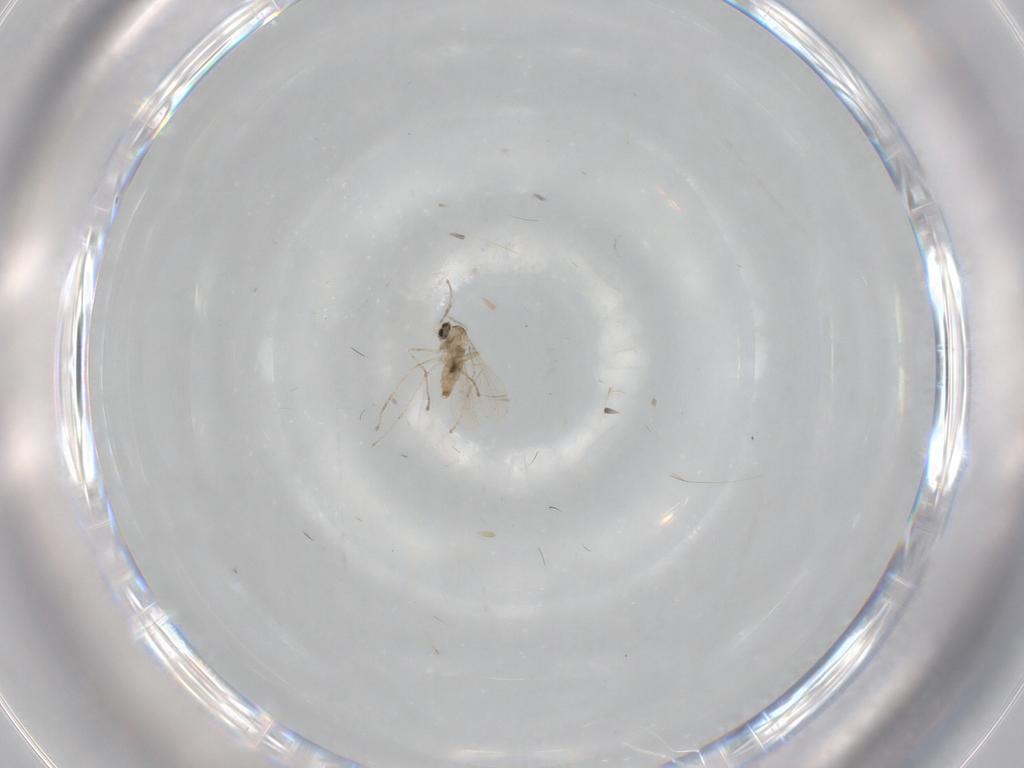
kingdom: Animalia
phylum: Arthropoda
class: Insecta
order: Diptera
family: Cecidomyiidae
